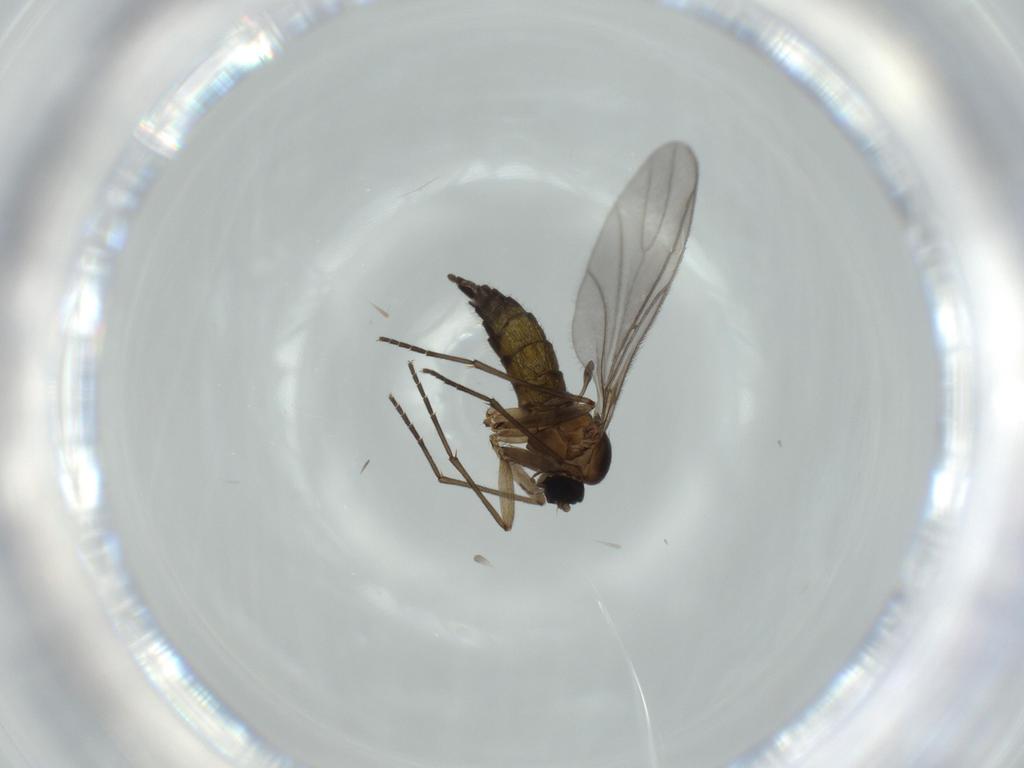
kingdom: Animalia
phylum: Arthropoda
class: Insecta
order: Diptera
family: Sciaridae
